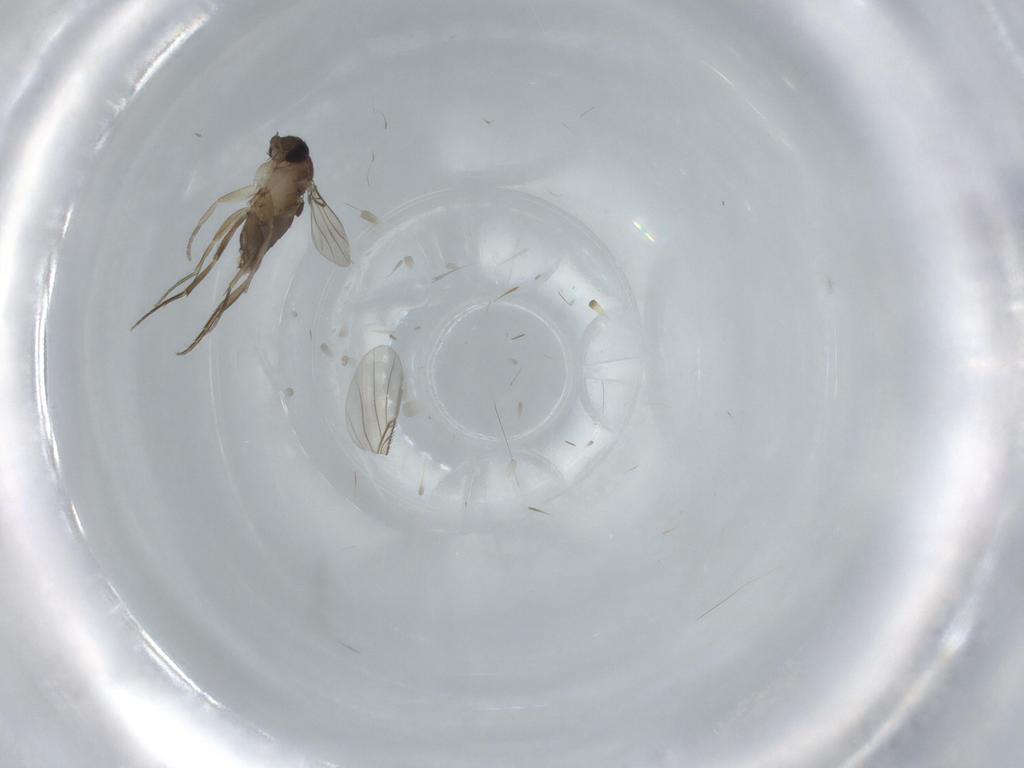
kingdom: Animalia
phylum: Arthropoda
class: Insecta
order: Diptera
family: Phoridae
